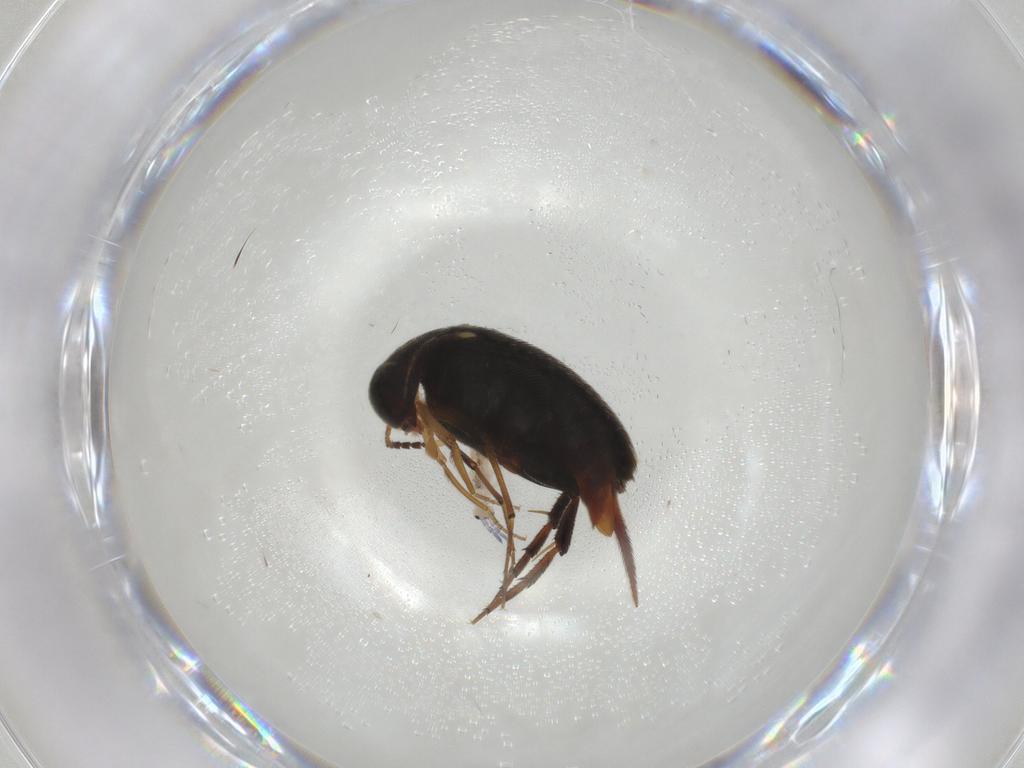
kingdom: Animalia
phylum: Arthropoda
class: Insecta
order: Coleoptera
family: Mordellidae
